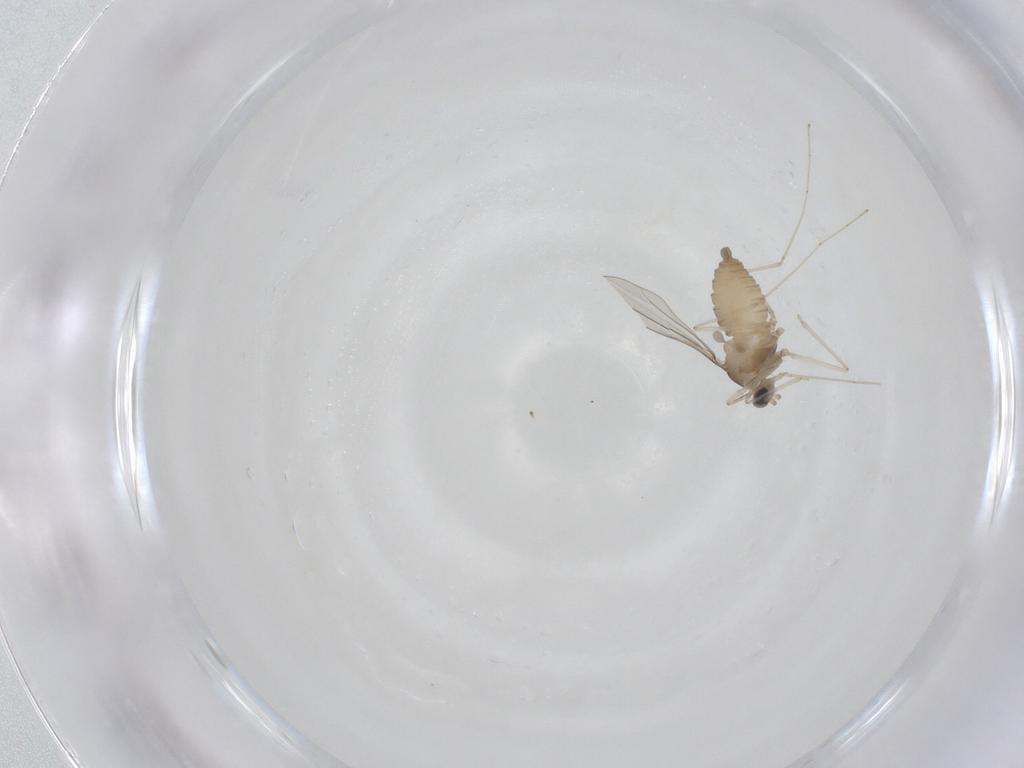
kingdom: Animalia
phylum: Arthropoda
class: Insecta
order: Diptera
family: Cecidomyiidae
